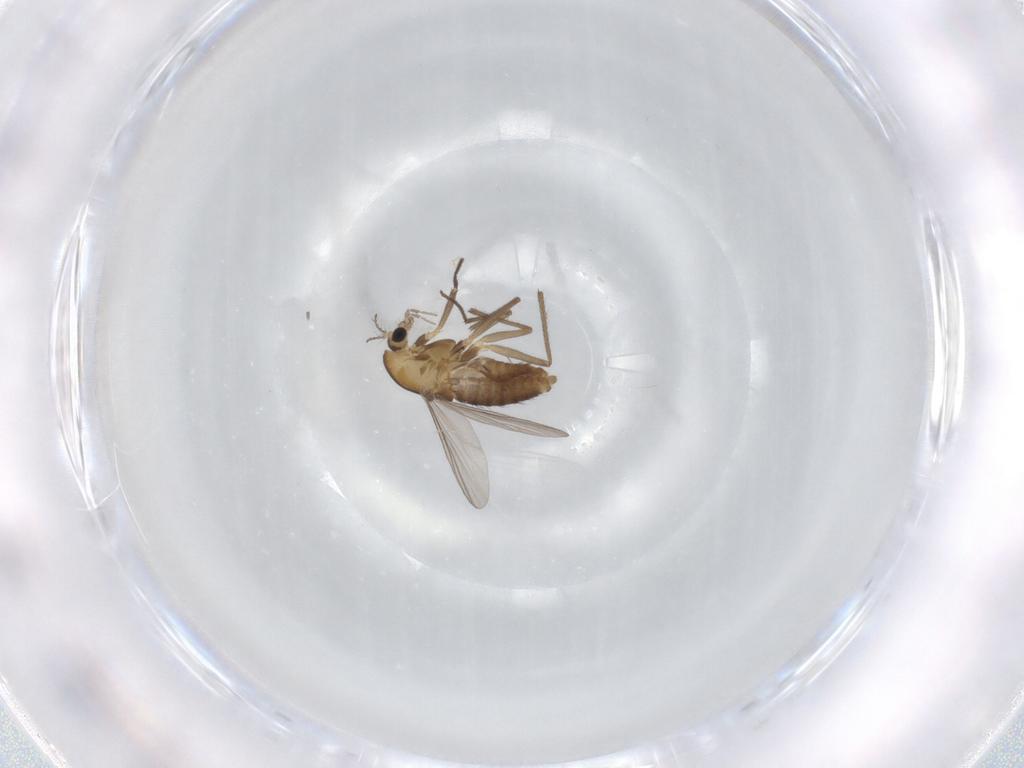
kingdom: Animalia
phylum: Arthropoda
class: Insecta
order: Diptera
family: Chironomidae
